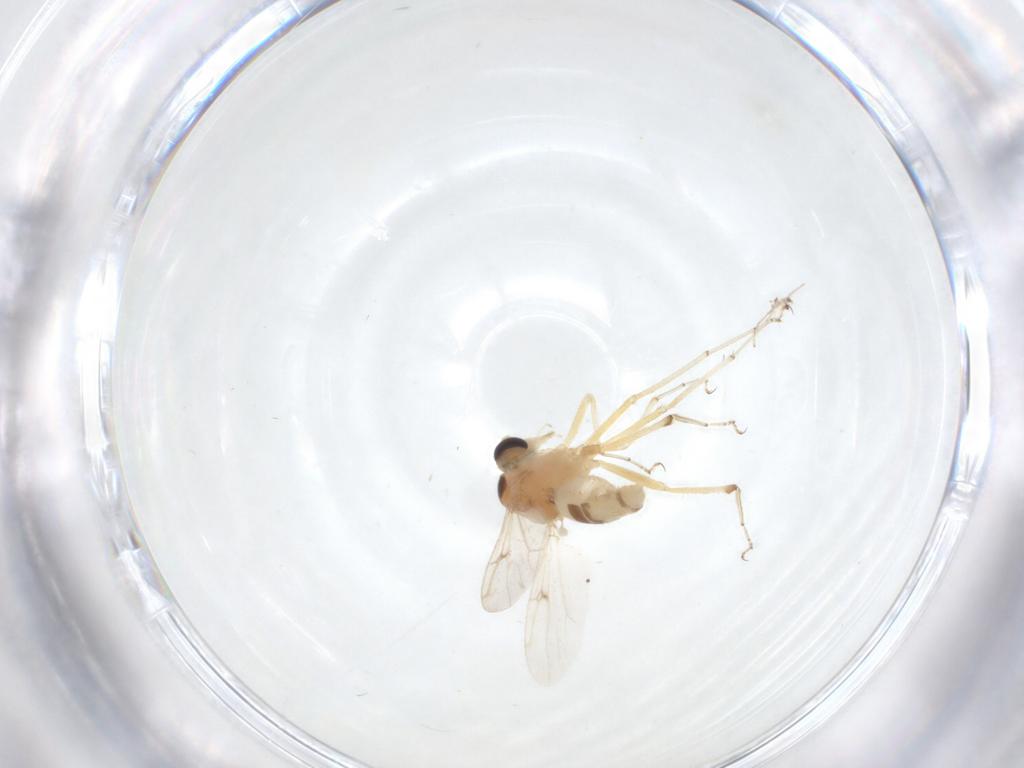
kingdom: Animalia
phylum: Arthropoda
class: Insecta
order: Diptera
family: Ceratopogonidae
